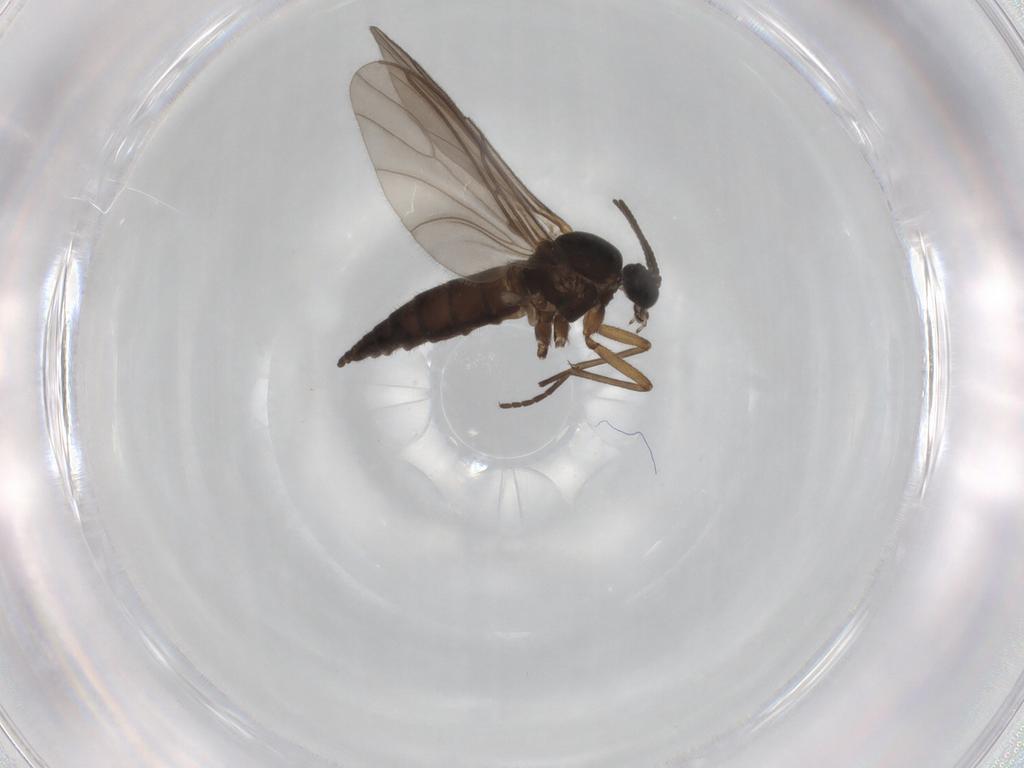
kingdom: Animalia
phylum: Arthropoda
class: Insecta
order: Diptera
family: Sciaridae
